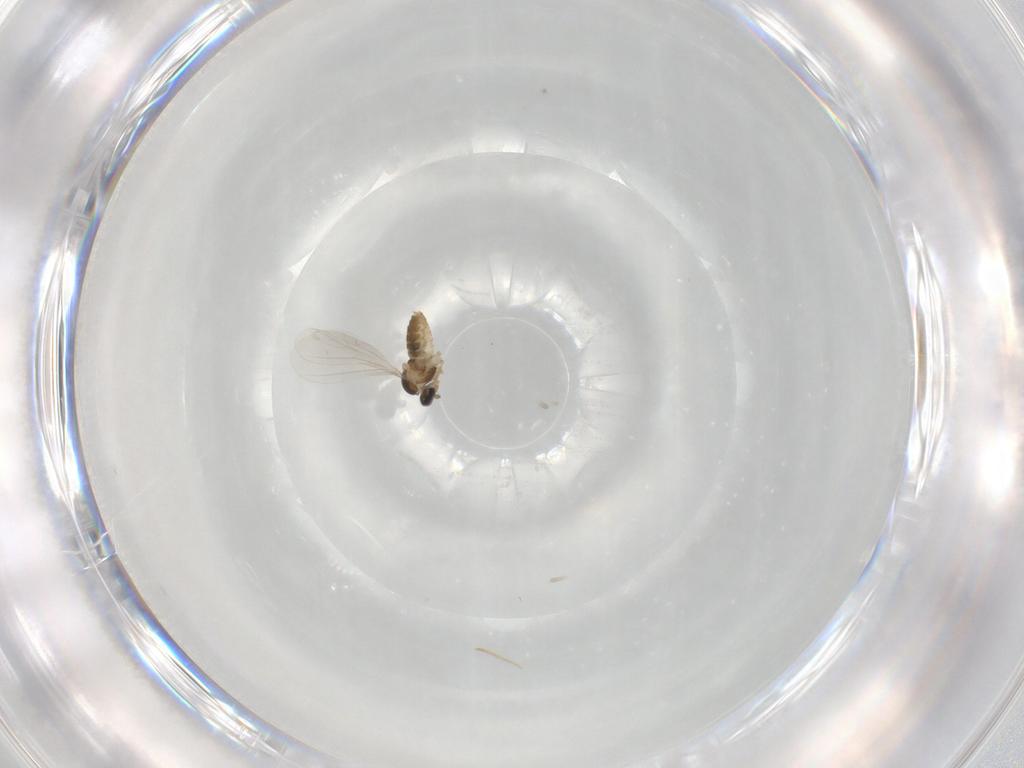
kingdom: Animalia
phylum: Arthropoda
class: Insecta
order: Diptera
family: Cecidomyiidae
